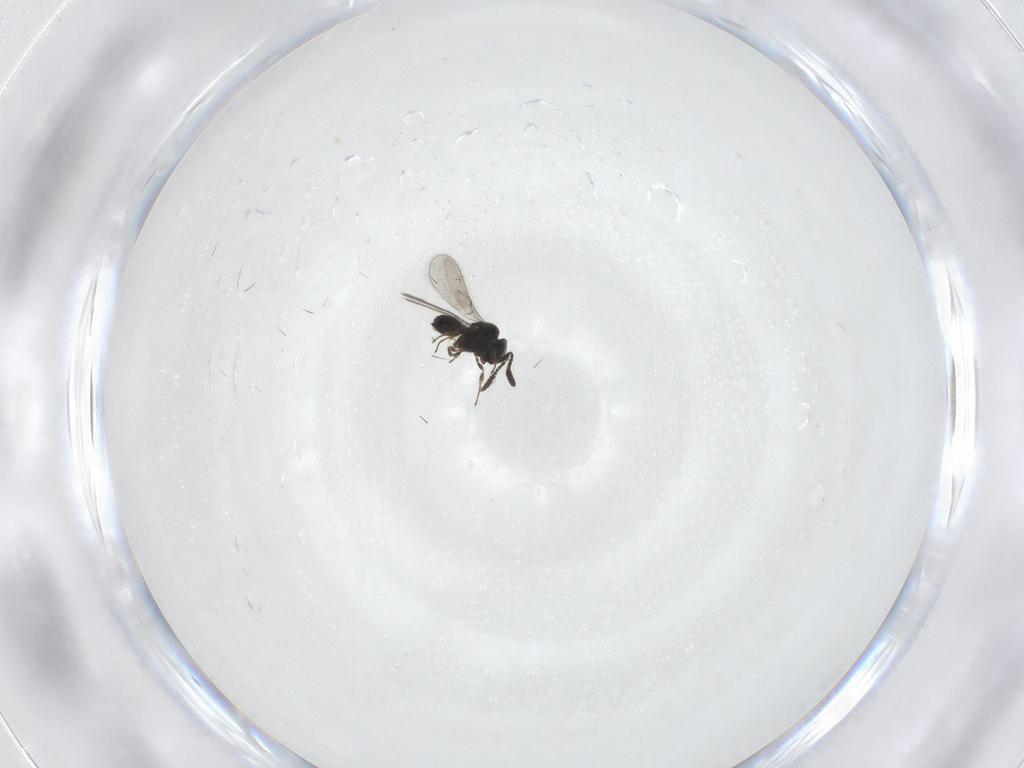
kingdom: Animalia
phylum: Arthropoda
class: Insecta
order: Hymenoptera
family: Scelionidae
